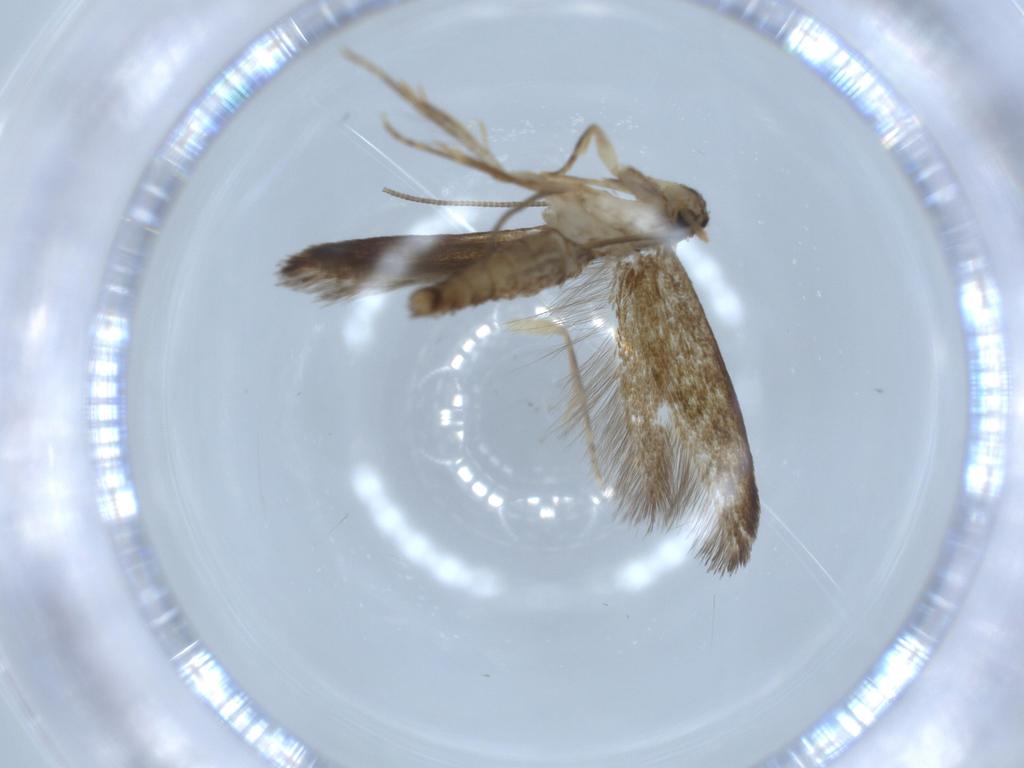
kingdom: Animalia
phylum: Arthropoda
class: Insecta
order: Lepidoptera
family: Tineidae
